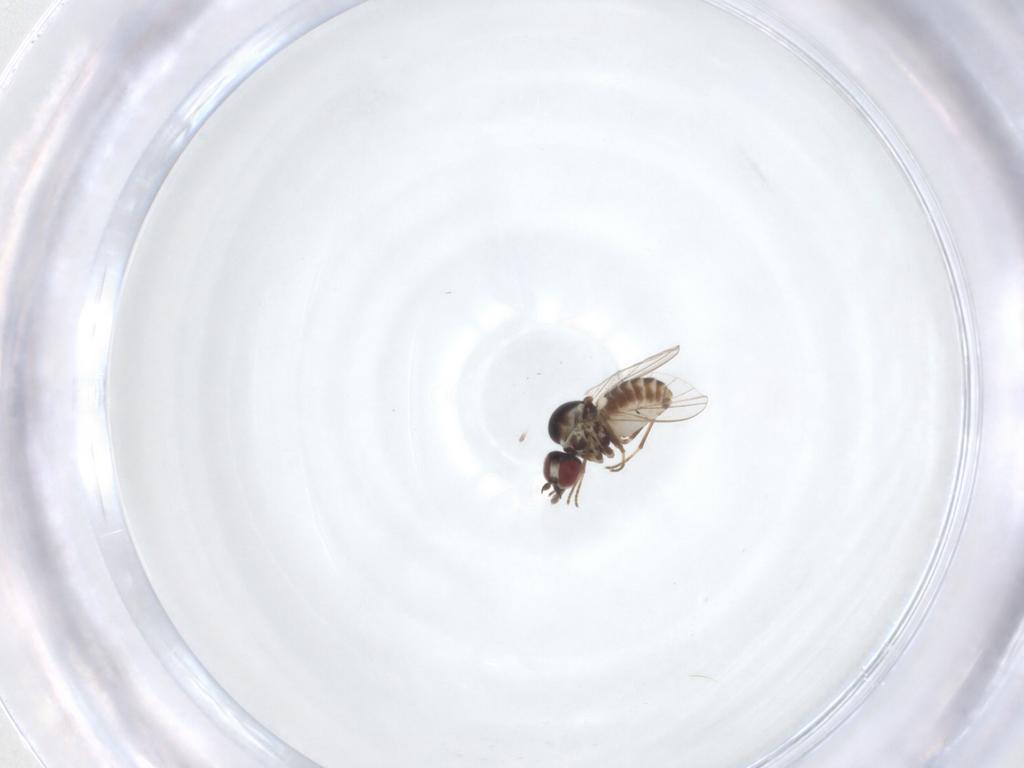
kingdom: Animalia
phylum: Arthropoda
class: Insecta
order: Diptera
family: Mythicomyiidae
